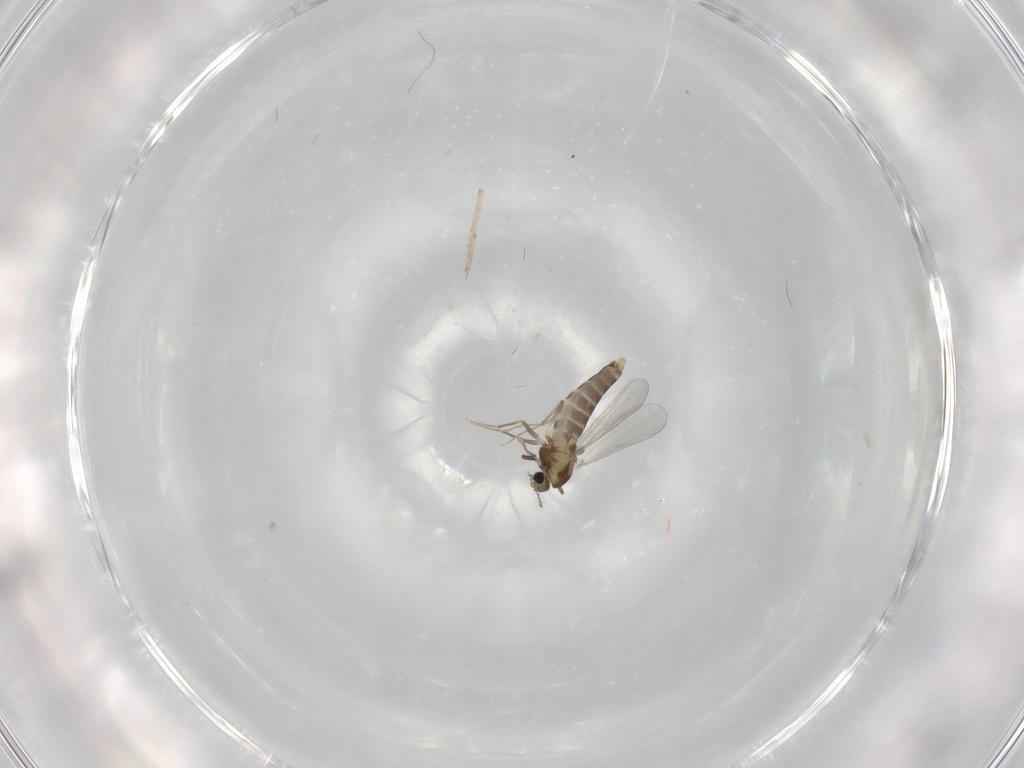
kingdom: Animalia
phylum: Arthropoda
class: Insecta
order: Diptera
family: Chironomidae
